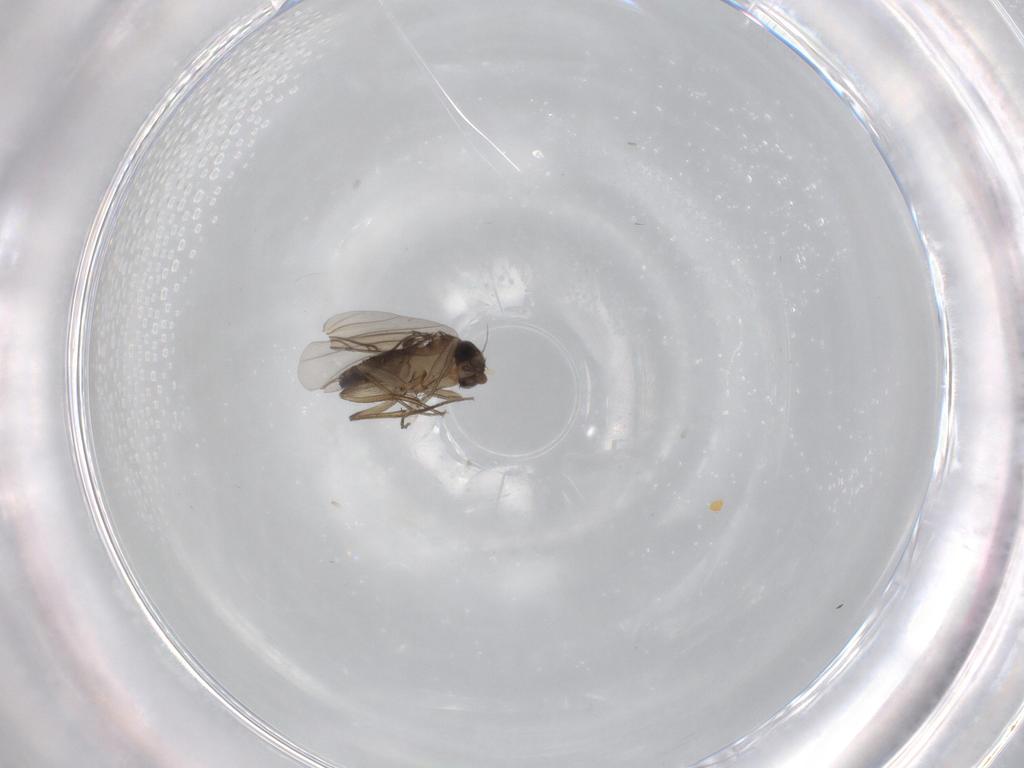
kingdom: Animalia
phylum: Arthropoda
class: Insecta
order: Diptera
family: Phoridae
